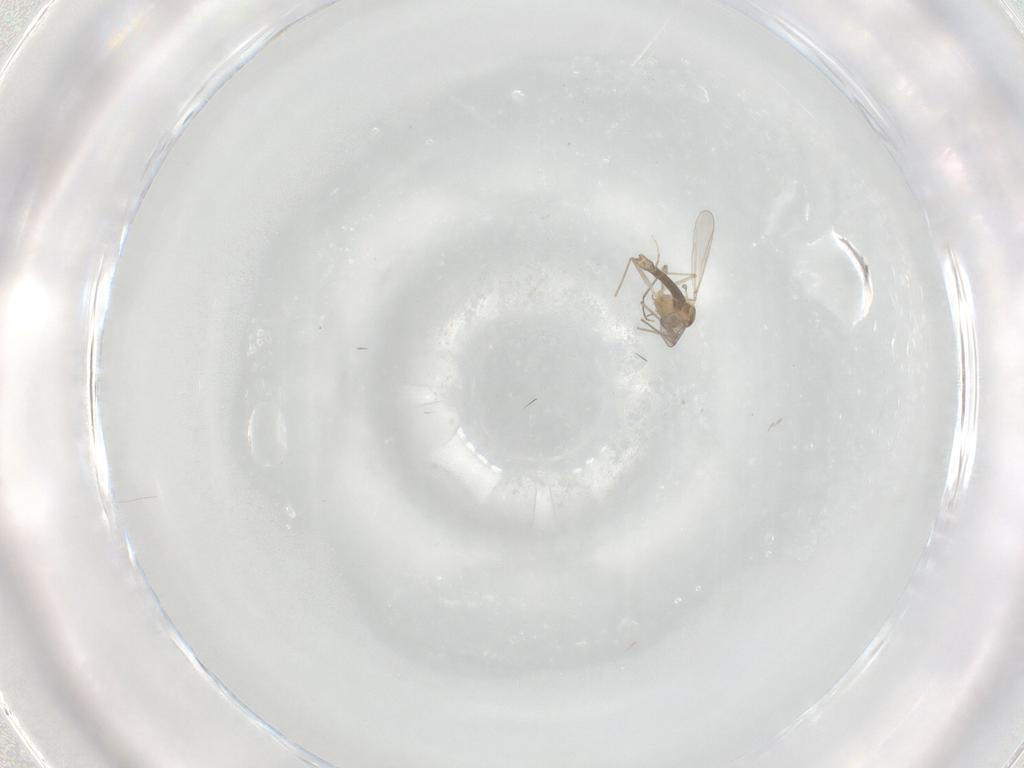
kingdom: Animalia
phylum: Arthropoda
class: Insecta
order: Diptera
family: Chironomidae
